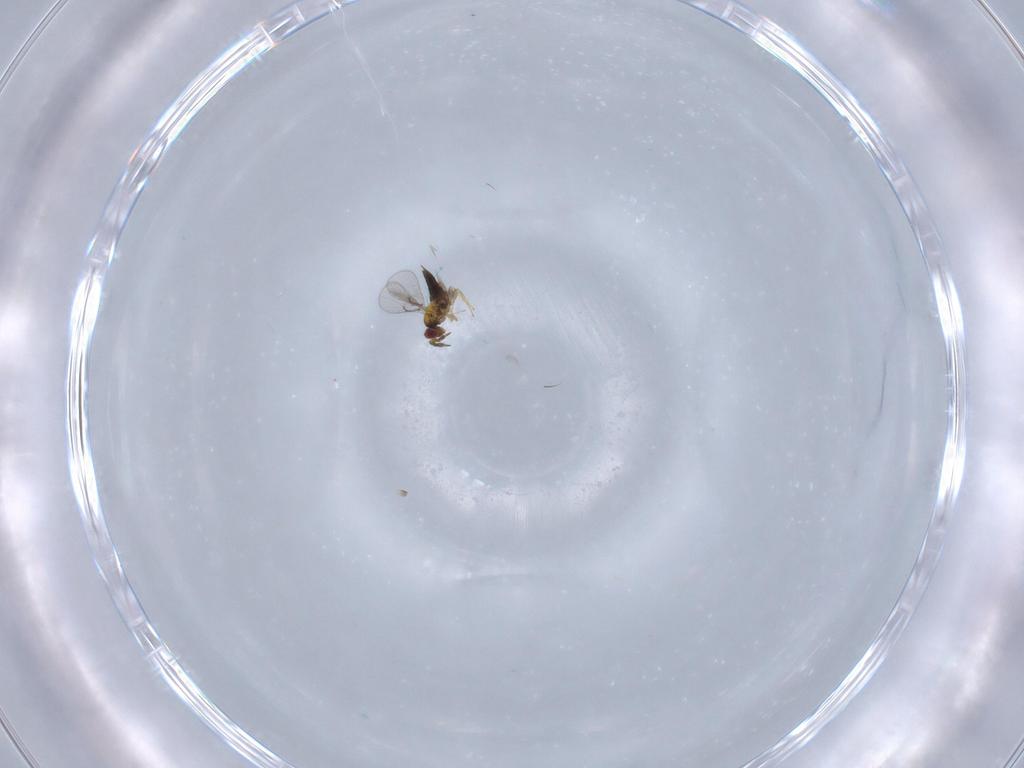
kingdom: Animalia
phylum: Arthropoda
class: Insecta
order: Hymenoptera
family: Trichogrammatidae
